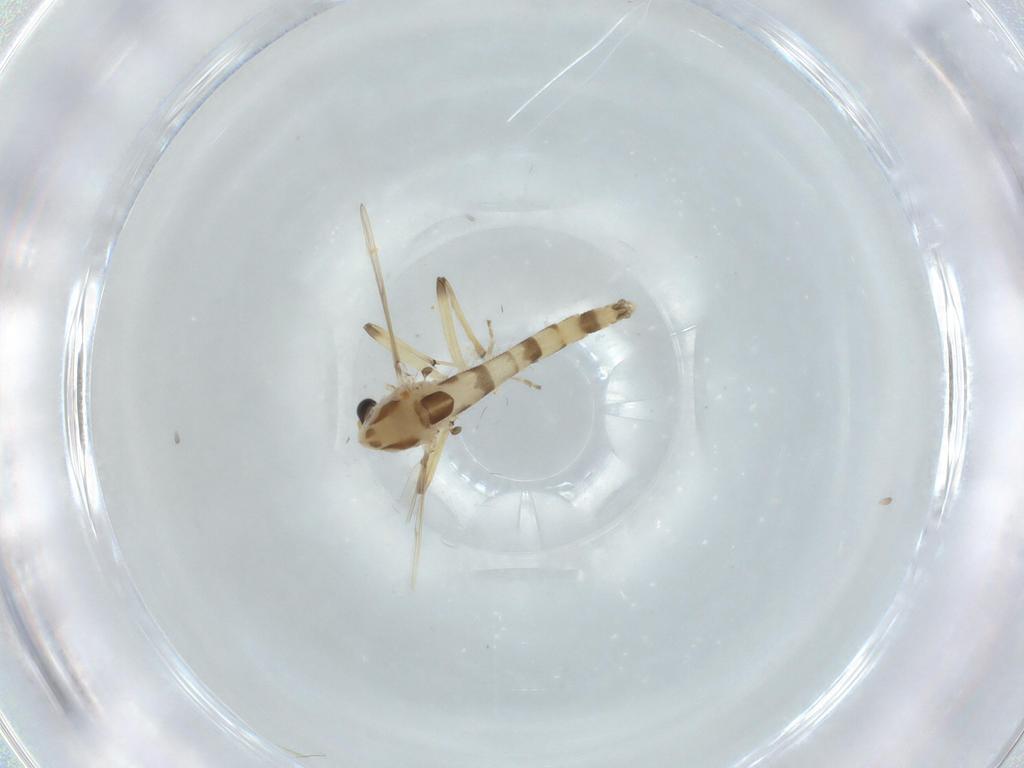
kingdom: Animalia
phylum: Arthropoda
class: Insecta
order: Diptera
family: Chironomidae
